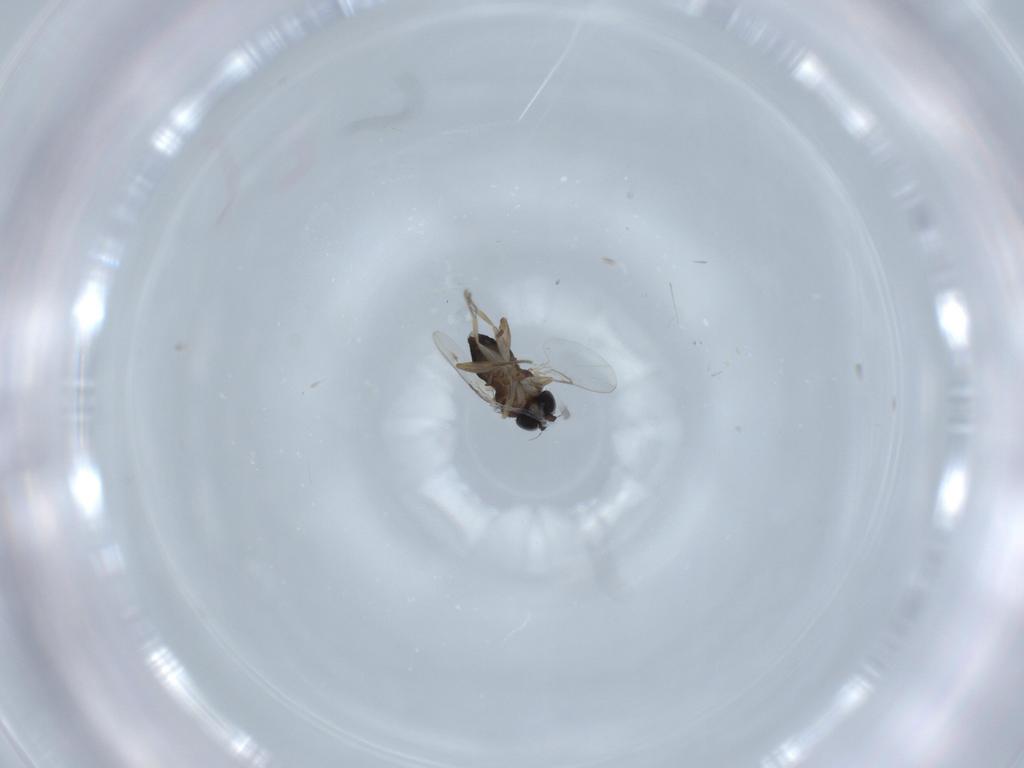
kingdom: Animalia
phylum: Arthropoda
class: Insecta
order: Diptera
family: Phoridae
